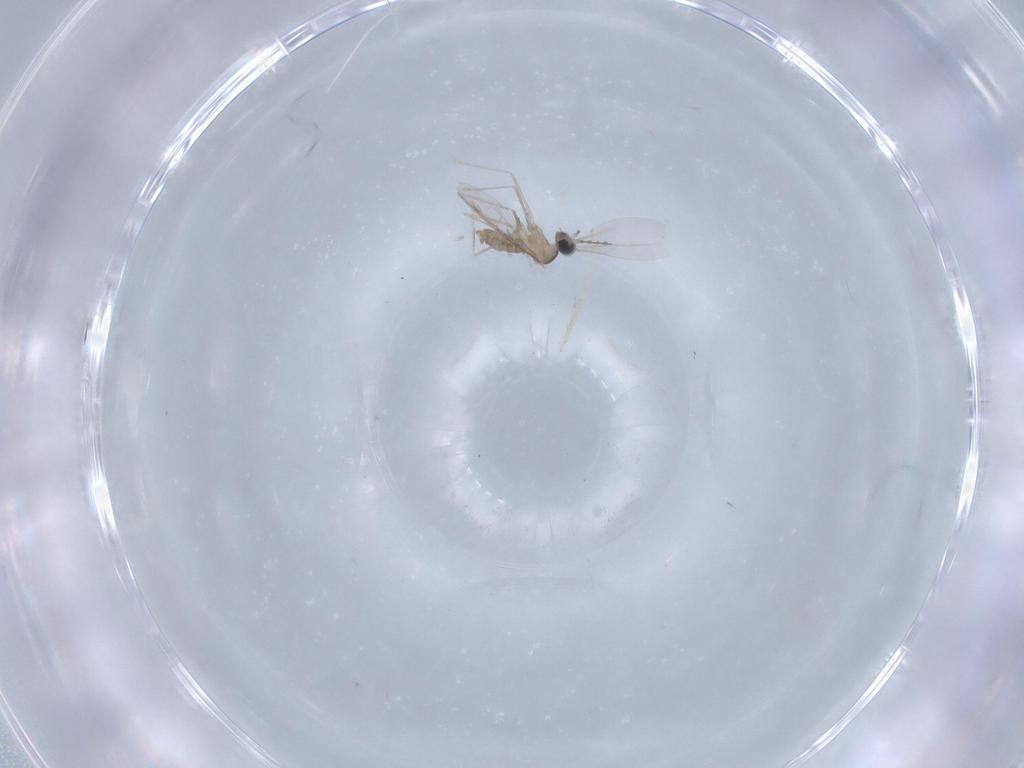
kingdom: Animalia
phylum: Arthropoda
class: Insecta
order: Diptera
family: Cecidomyiidae
